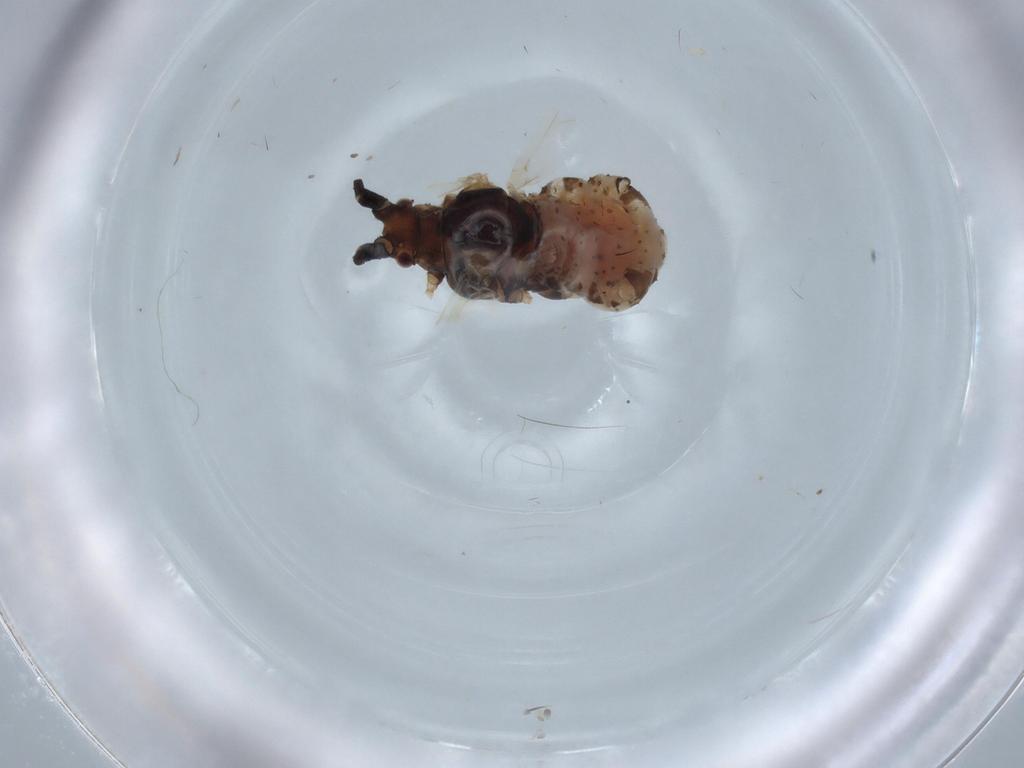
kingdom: Animalia
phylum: Arthropoda
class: Insecta
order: Hemiptera
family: Aphididae
